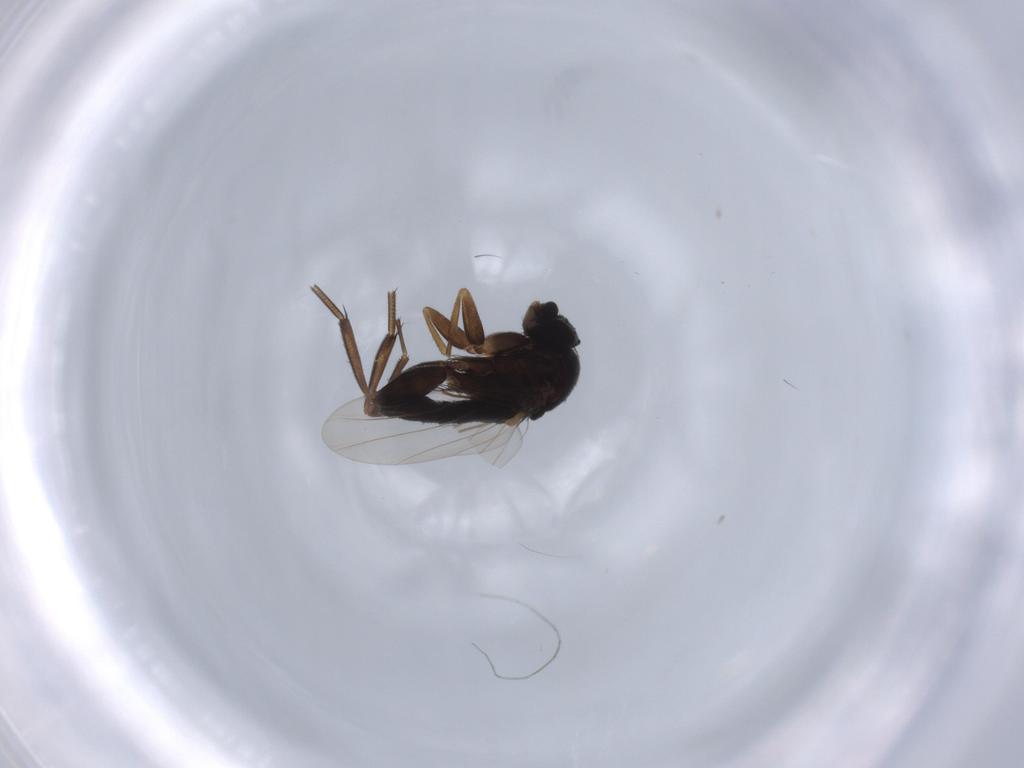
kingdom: Animalia
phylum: Arthropoda
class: Insecta
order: Diptera
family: Phoridae
